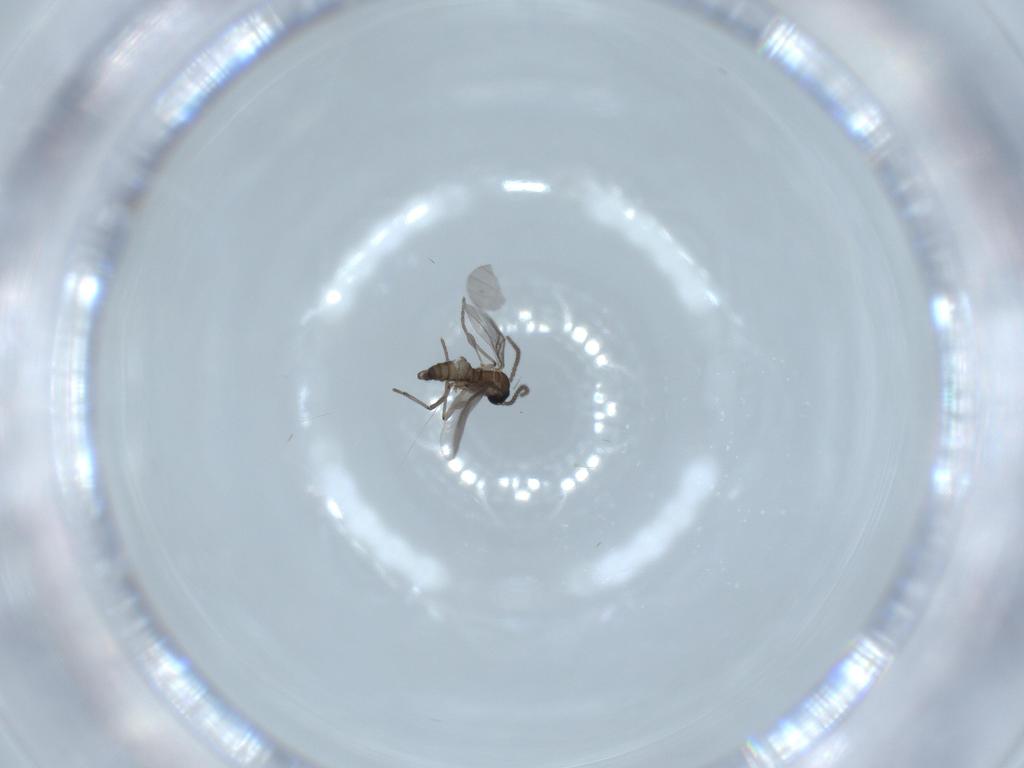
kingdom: Animalia
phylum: Arthropoda
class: Insecta
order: Diptera
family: Sciaridae
